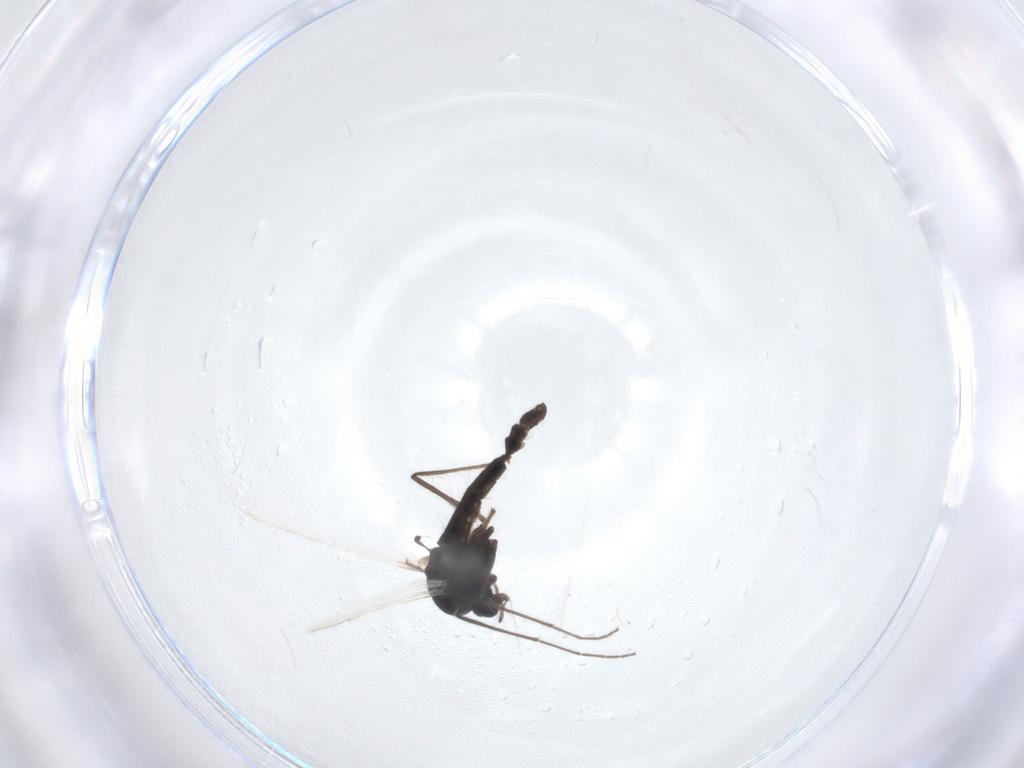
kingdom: Animalia
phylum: Arthropoda
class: Insecta
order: Diptera
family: Chironomidae
